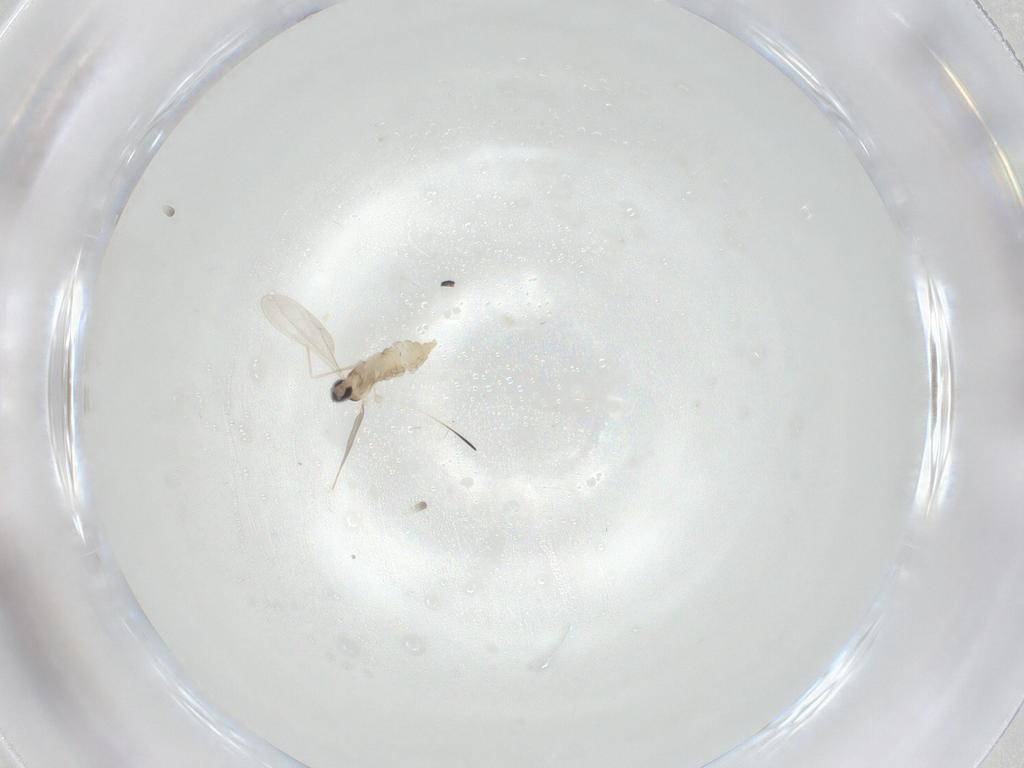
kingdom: Animalia
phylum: Arthropoda
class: Insecta
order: Diptera
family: Cecidomyiidae
